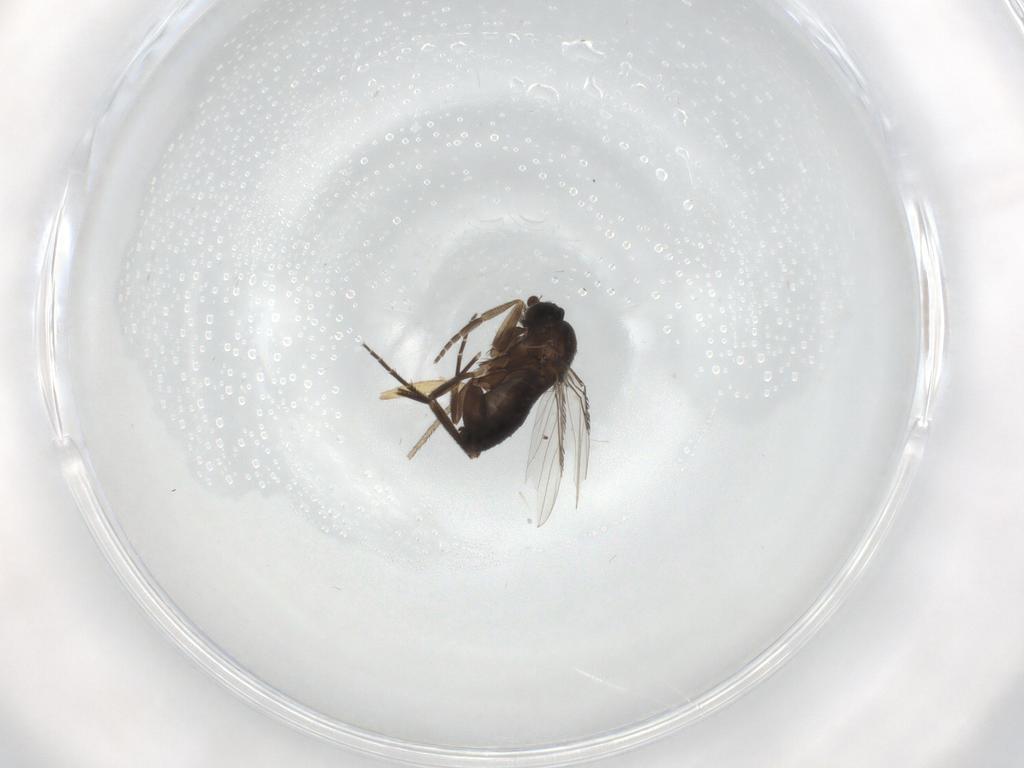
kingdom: Animalia
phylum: Arthropoda
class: Insecta
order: Diptera
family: Sciaridae
